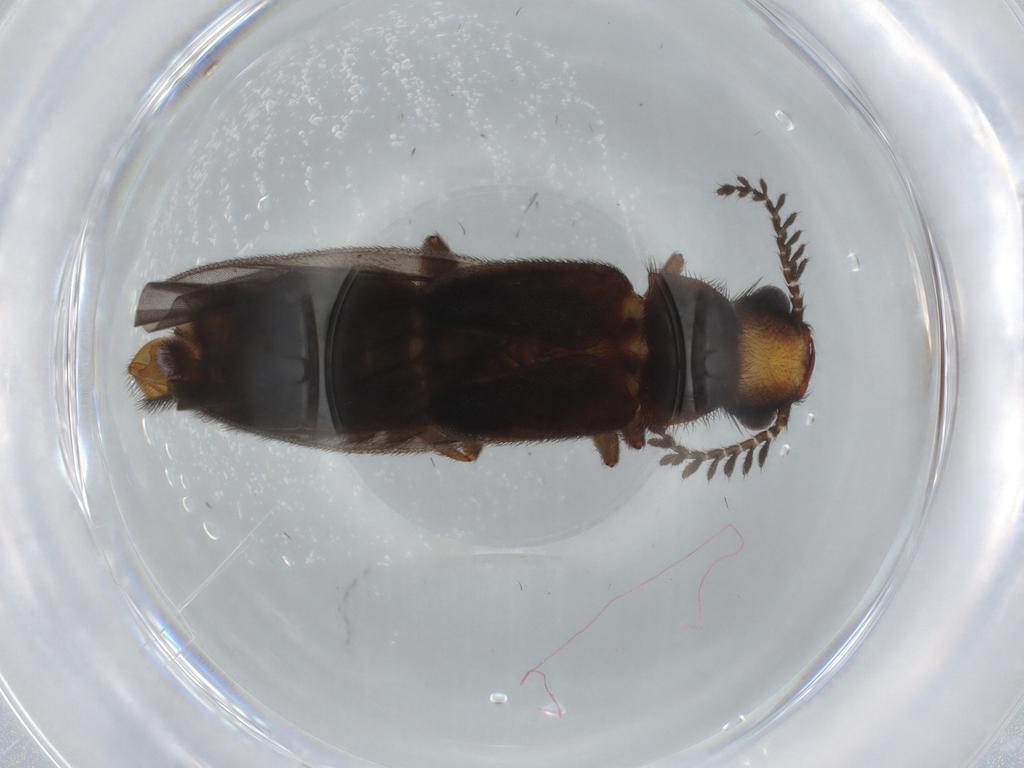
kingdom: Animalia
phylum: Arthropoda
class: Insecta
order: Coleoptera
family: Phengodidae
